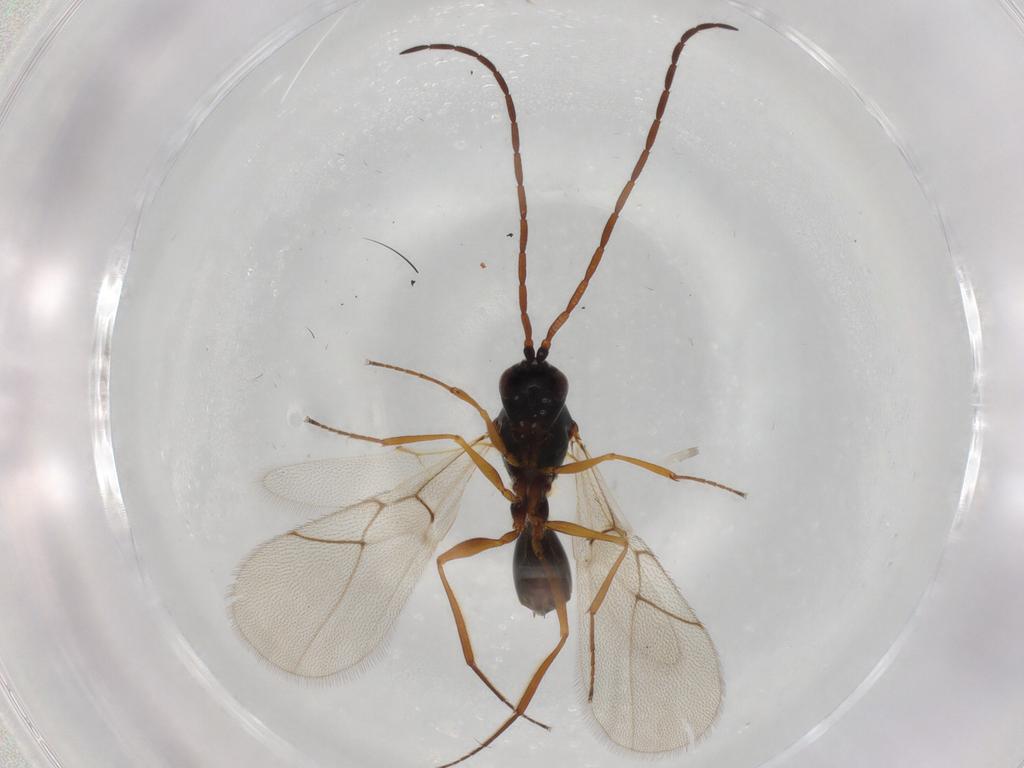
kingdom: Animalia
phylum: Arthropoda
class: Insecta
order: Hymenoptera
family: Figitidae
